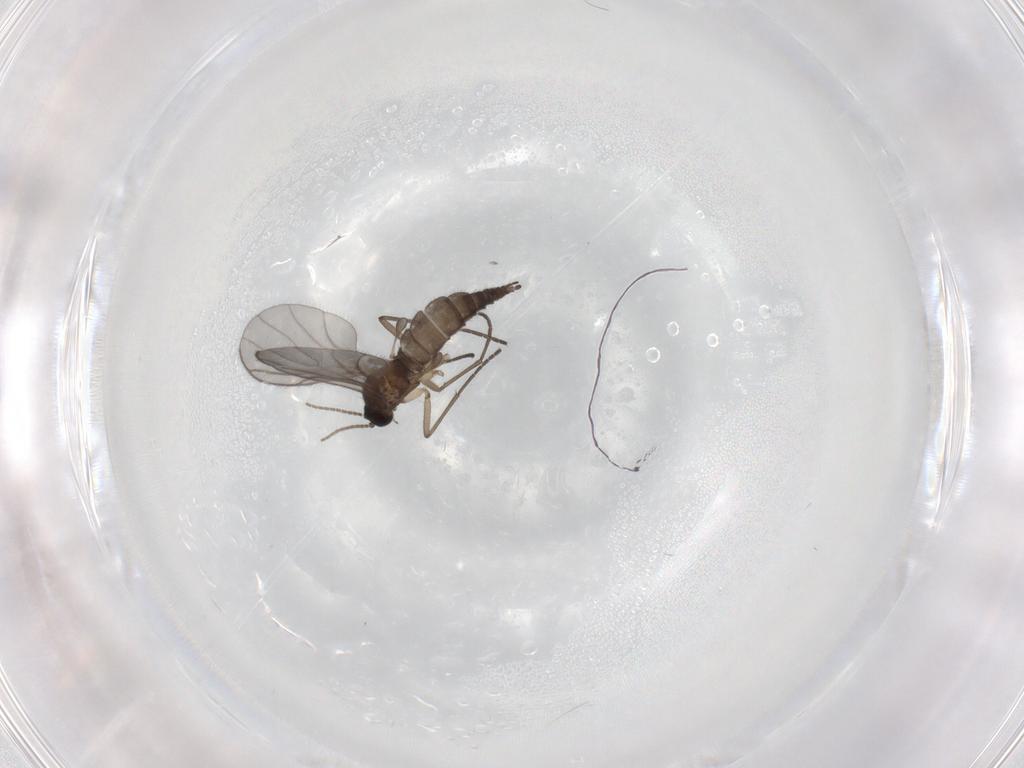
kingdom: Animalia
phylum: Arthropoda
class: Insecta
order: Diptera
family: Sciaridae
